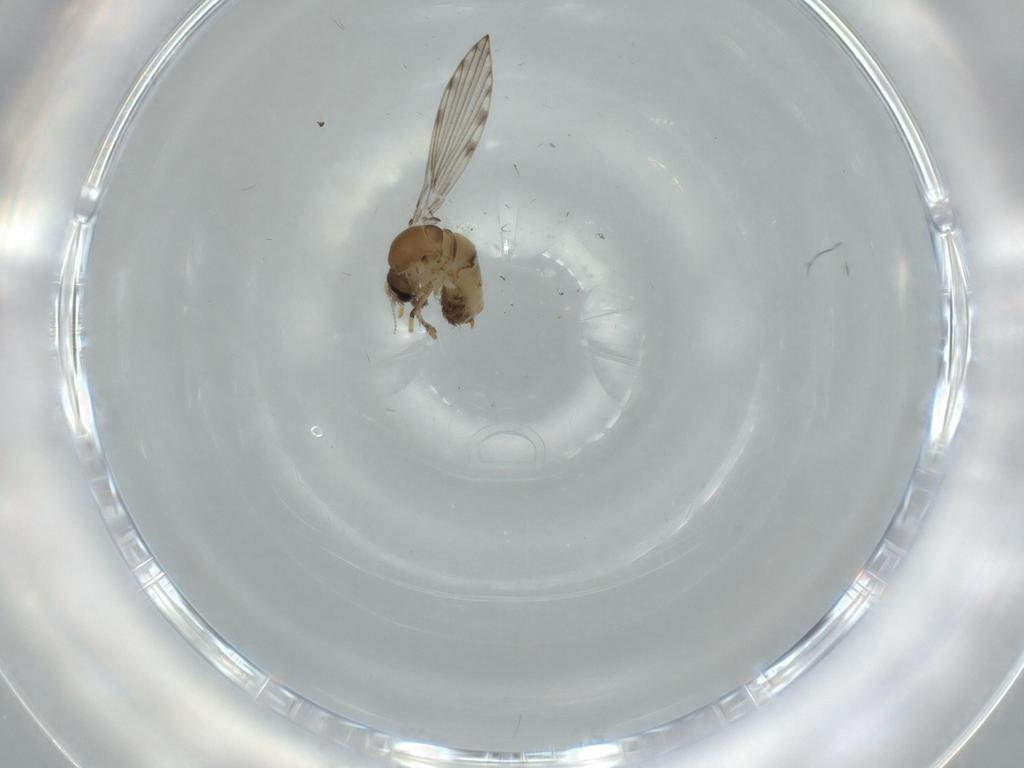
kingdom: Animalia
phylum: Arthropoda
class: Insecta
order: Diptera
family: Psychodidae
